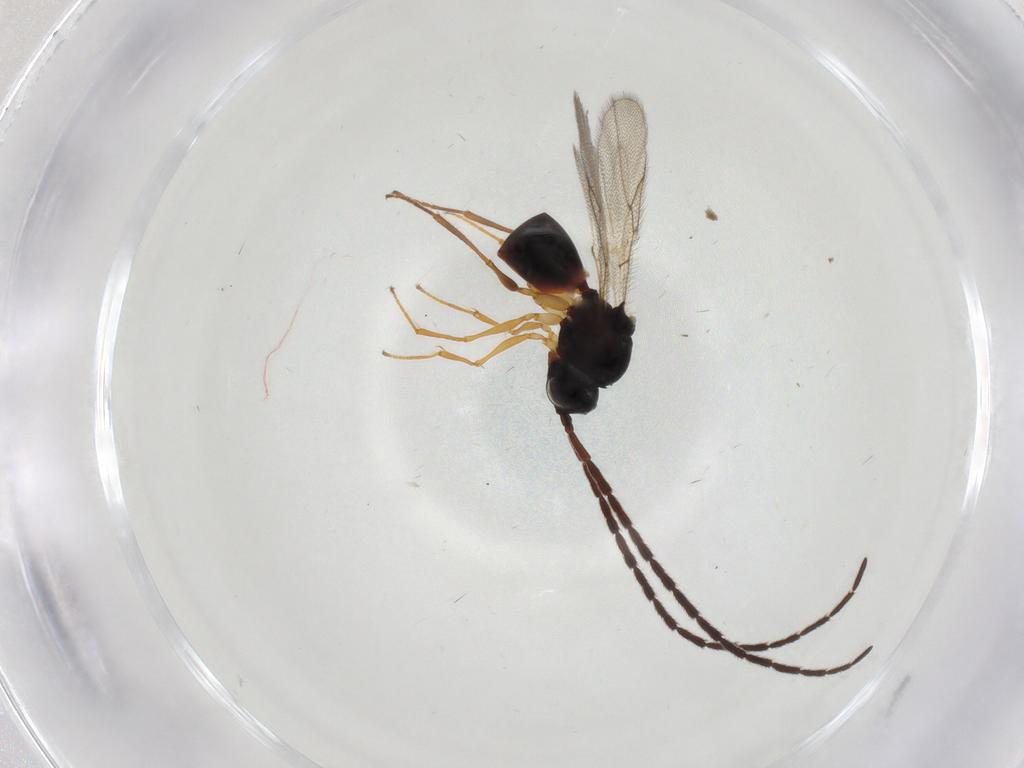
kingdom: Animalia
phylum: Arthropoda
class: Insecta
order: Hymenoptera
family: Figitidae
